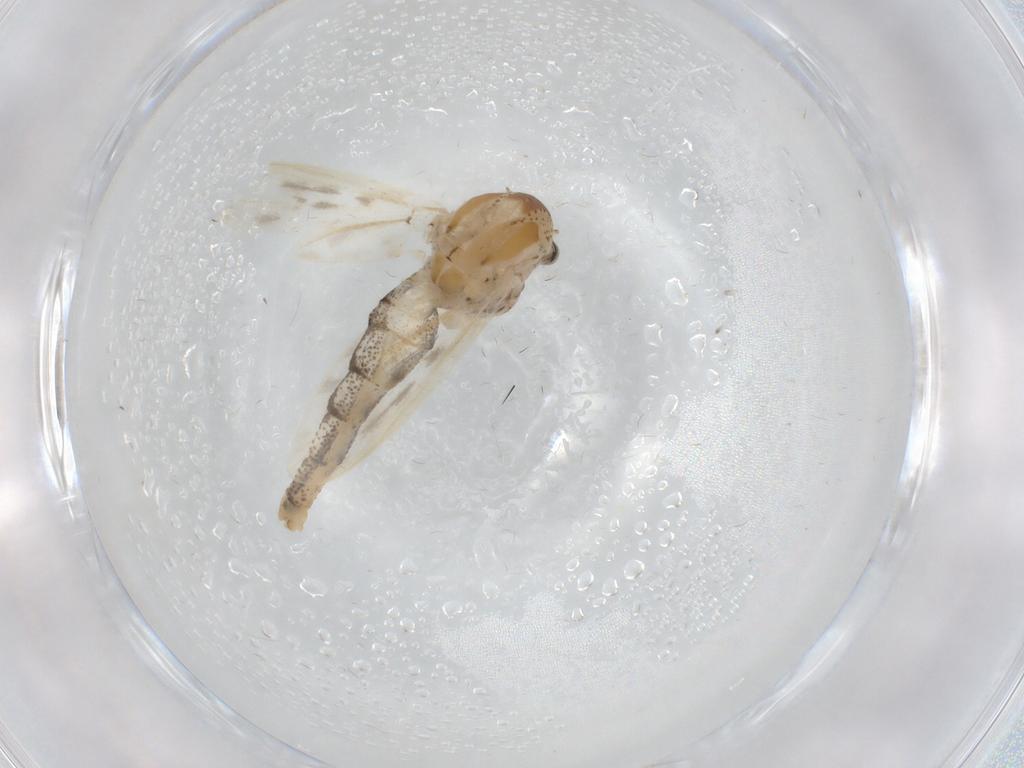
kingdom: Animalia
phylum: Arthropoda
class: Insecta
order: Diptera
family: Chaoboridae
